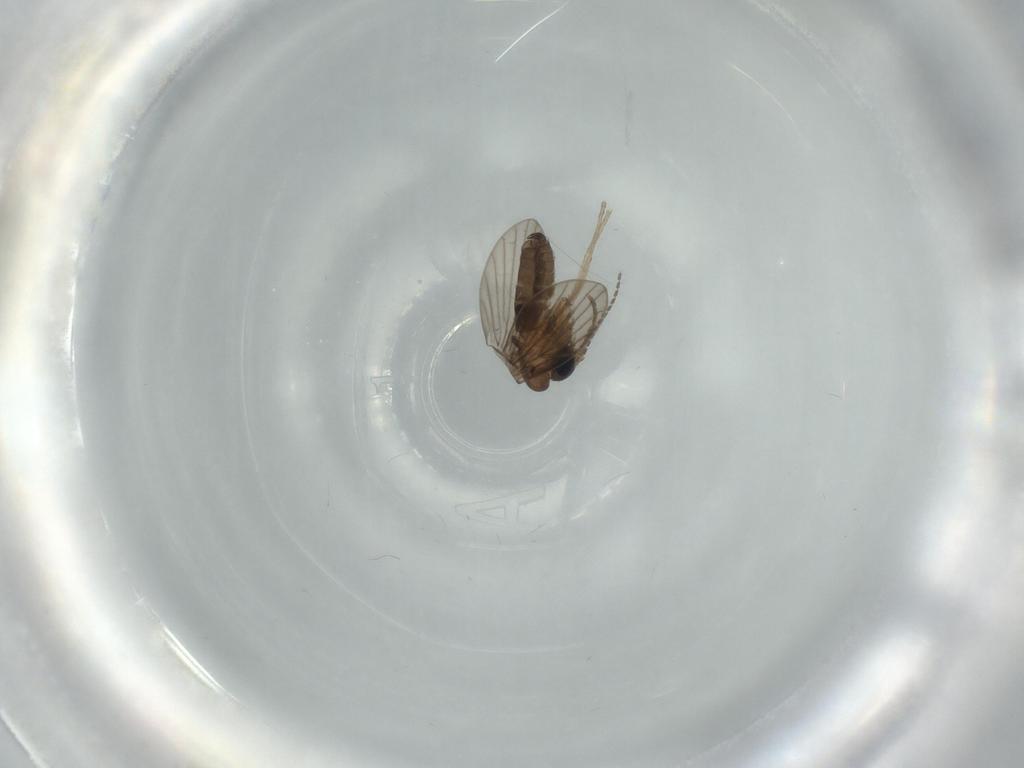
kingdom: Animalia
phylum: Arthropoda
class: Insecta
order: Diptera
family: Psychodidae
